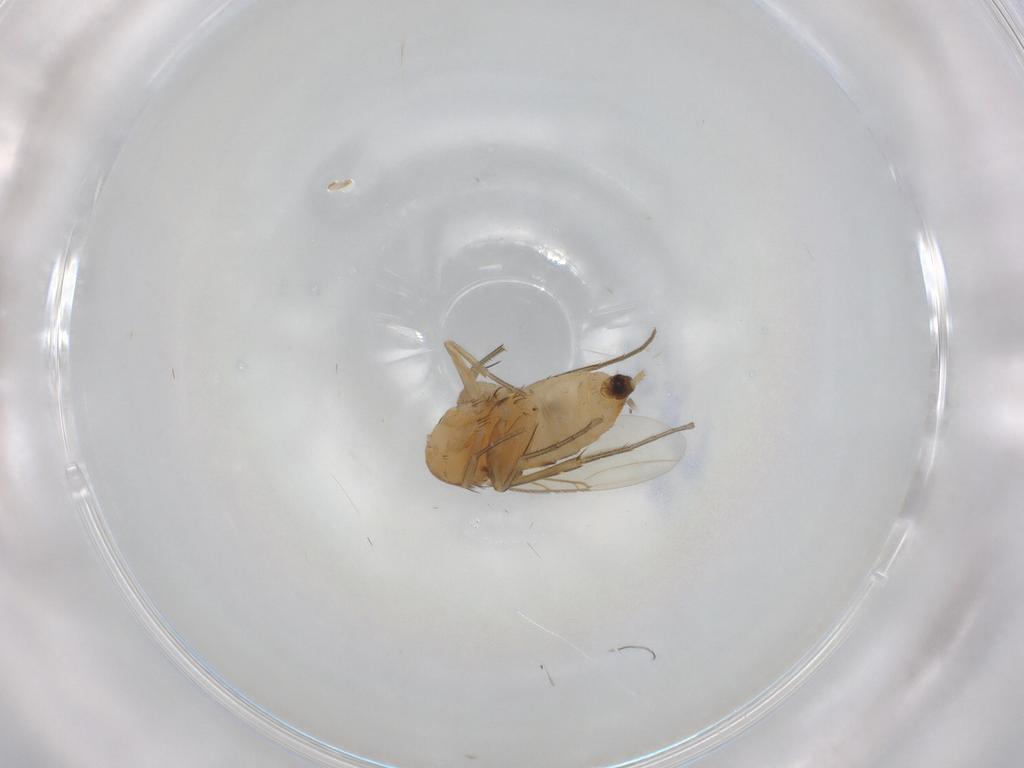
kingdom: Animalia
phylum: Arthropoda
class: Insecta
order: Diptera
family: Phoridae
